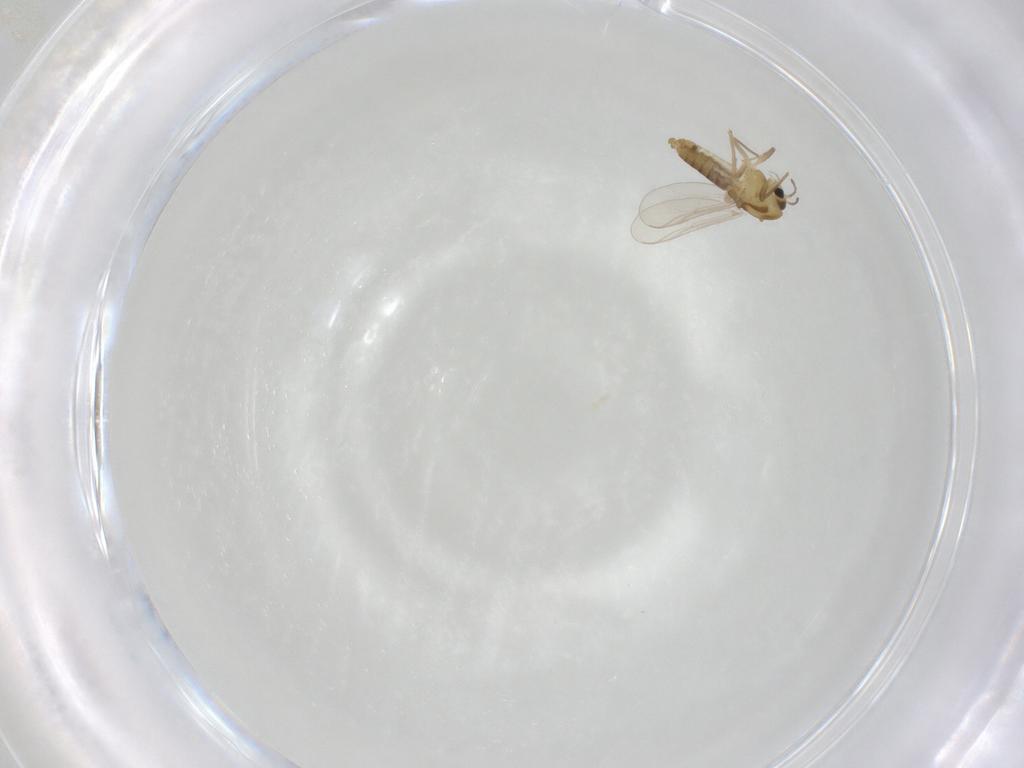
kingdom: Animalia
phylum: Arthropoda
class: Insecta
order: Diptera
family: Chironomidae
